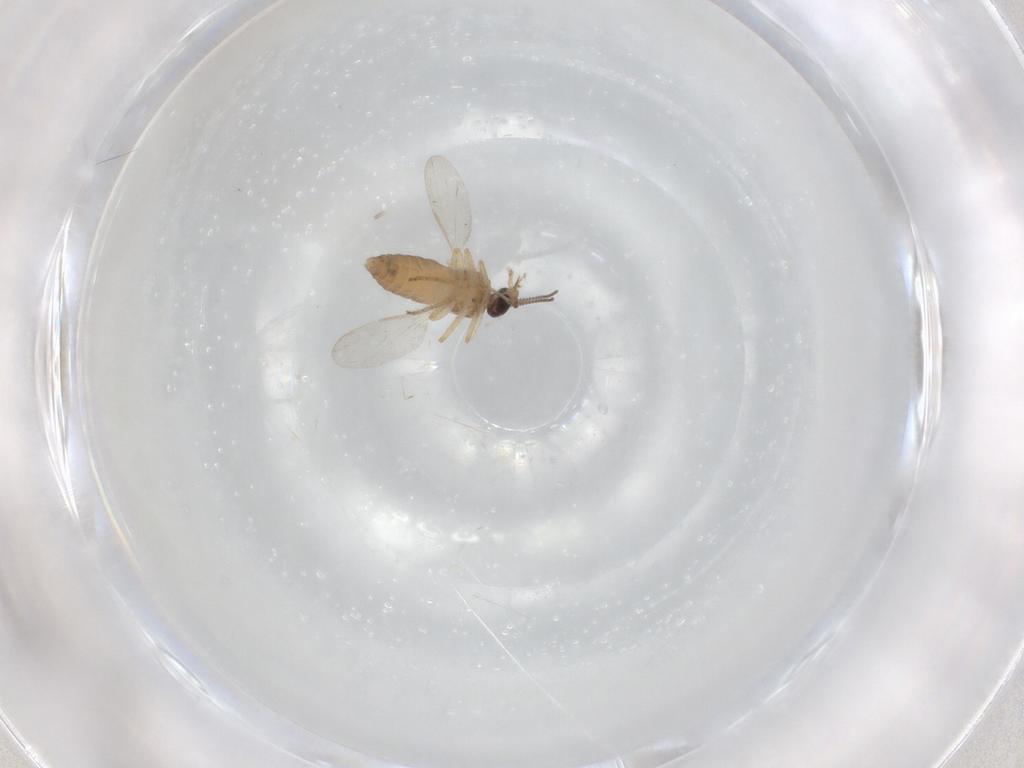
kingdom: Animalia
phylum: Arthropoda
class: Insecta
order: Diptera
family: Ceratopogonidae
